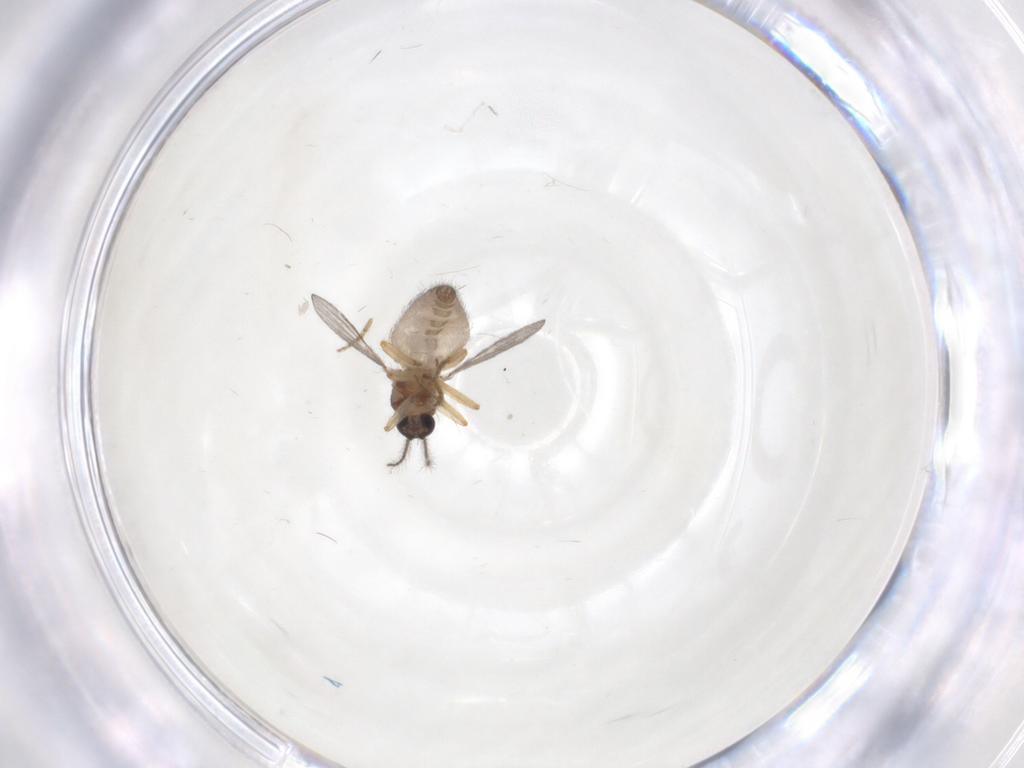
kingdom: Animalia
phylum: Arthropoda
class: Insecta
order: Diptera
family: Ceratopogonidae
